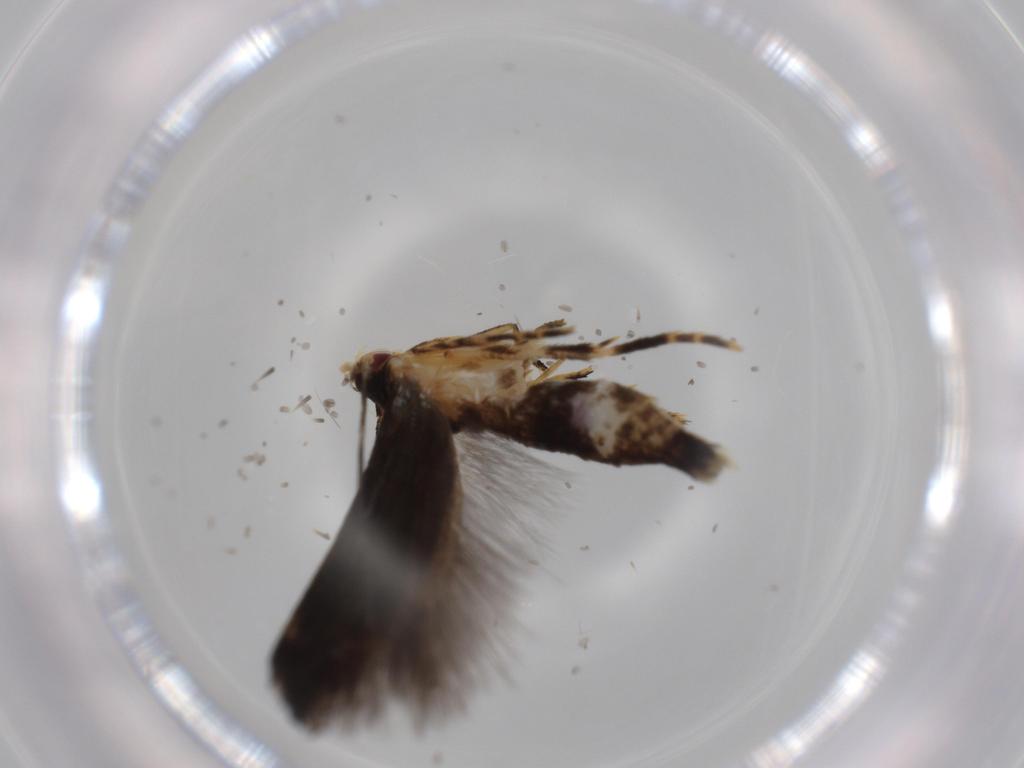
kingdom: Animalia
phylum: Arthropoda
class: Insecta
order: Lepidoptera
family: Momphidae
